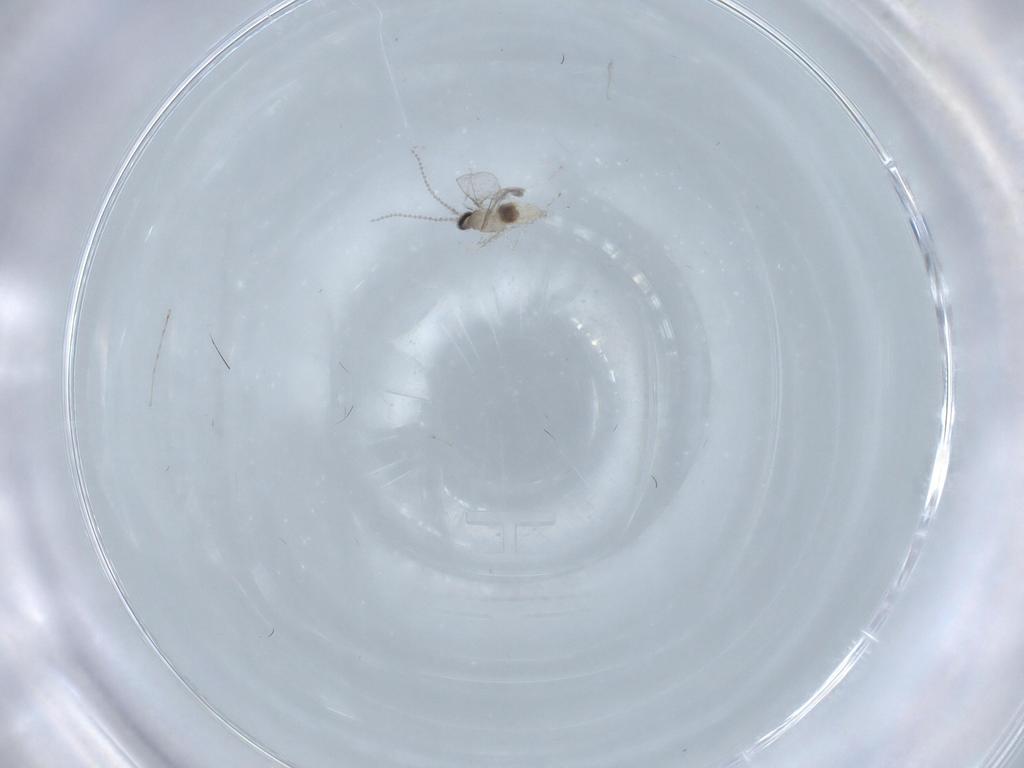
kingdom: Animalia
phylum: Arthropoda
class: Insecta
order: Diptera
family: Cecidomyiidae
